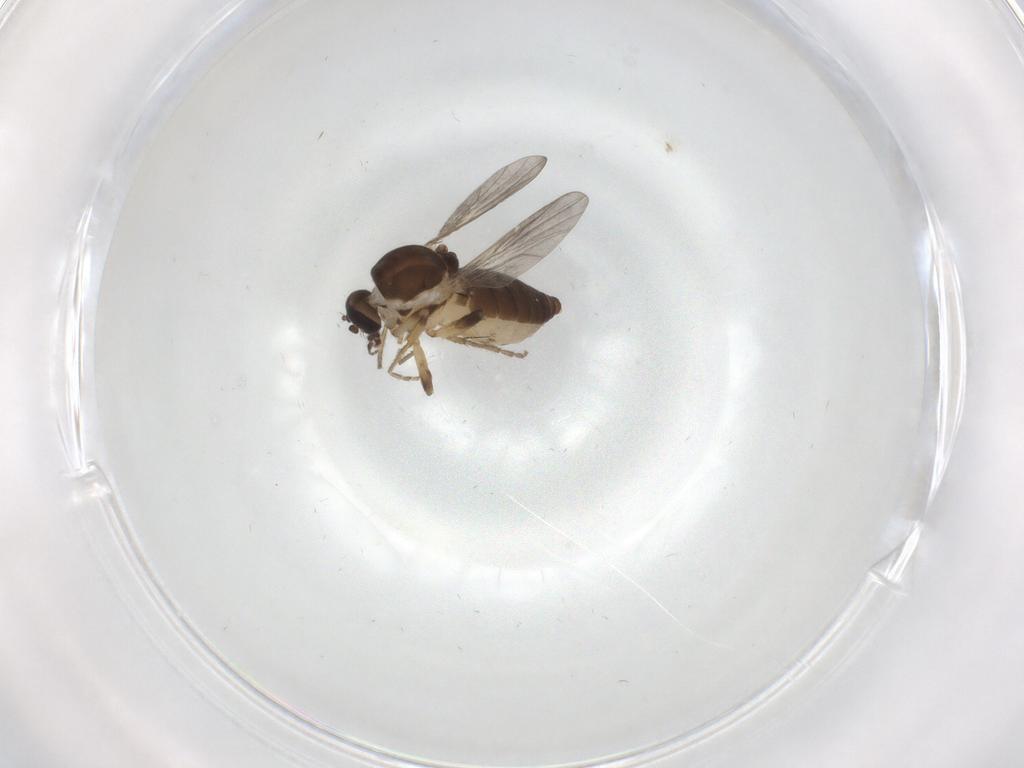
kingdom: Animalia
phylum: Arthropoda
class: Insecta
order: Diptera
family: Ceratopogonidae
